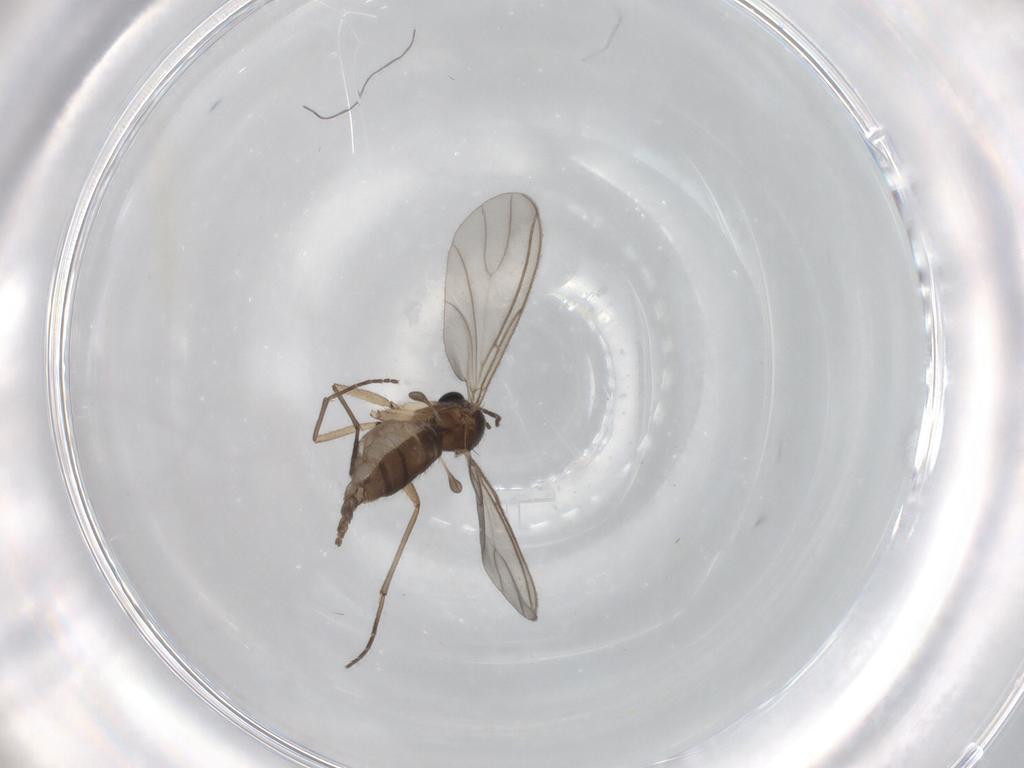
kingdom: Animalia
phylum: Arthropoda
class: Insecta
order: Diptera
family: Sciaridae
